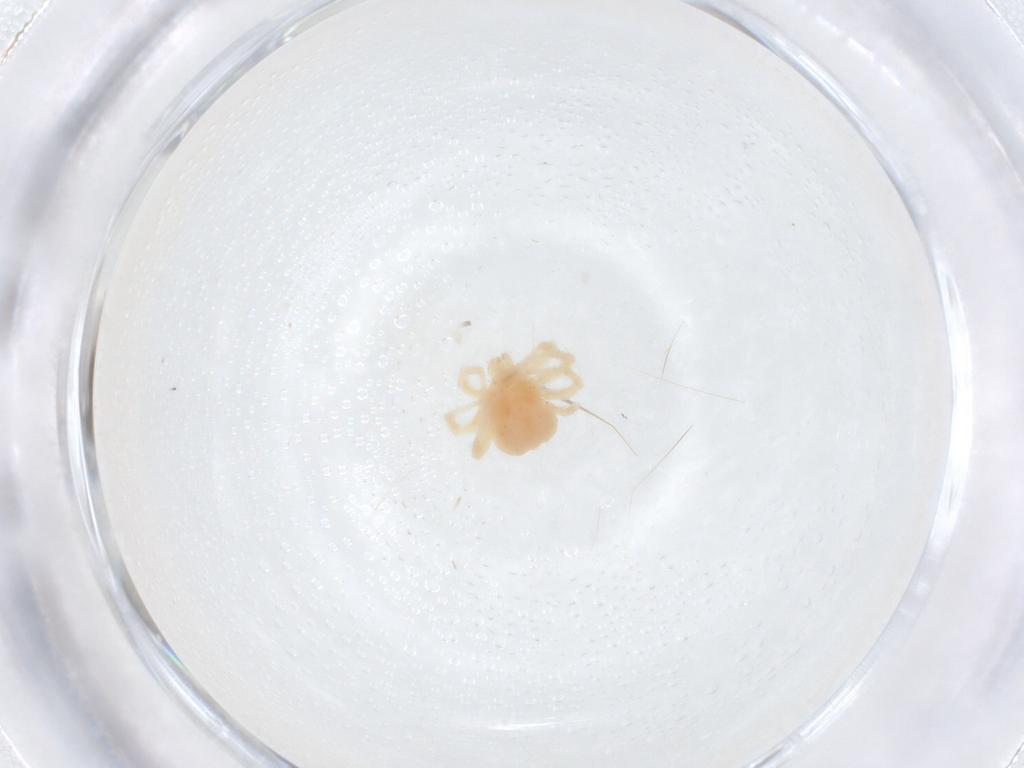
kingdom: Animalia
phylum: Arthropoda
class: Arachnida
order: Mesostigmata
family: Phytoseiidae
